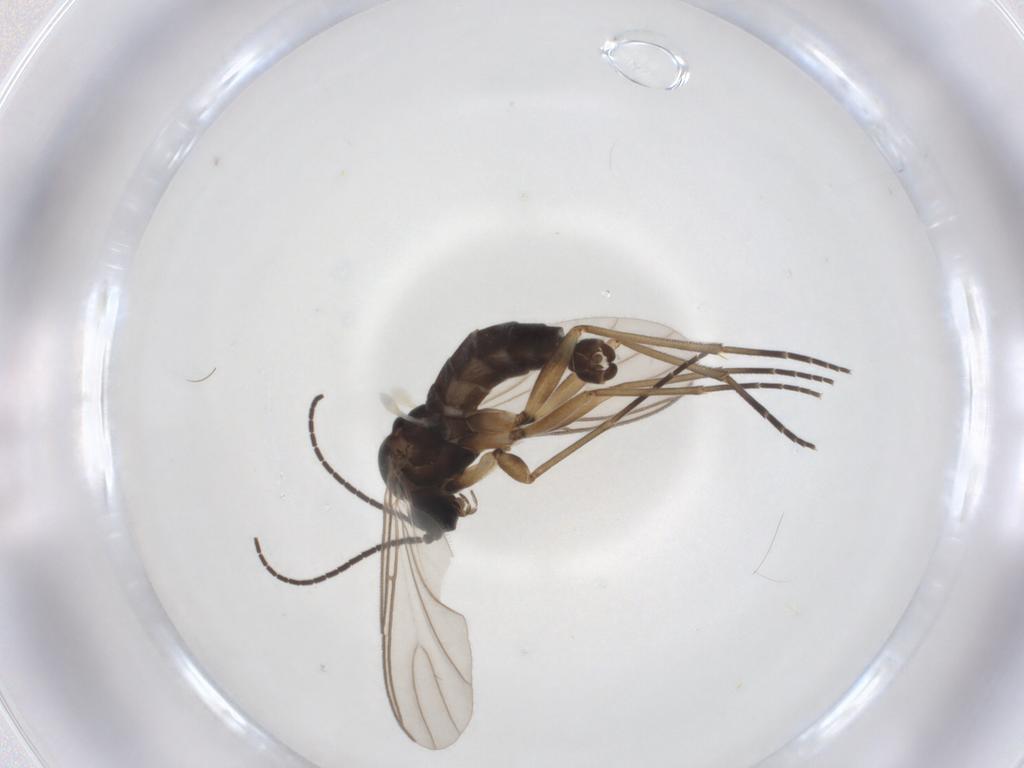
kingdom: Animalia
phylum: Arthropoda
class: Insecta
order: Diptera
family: Sciaridae
